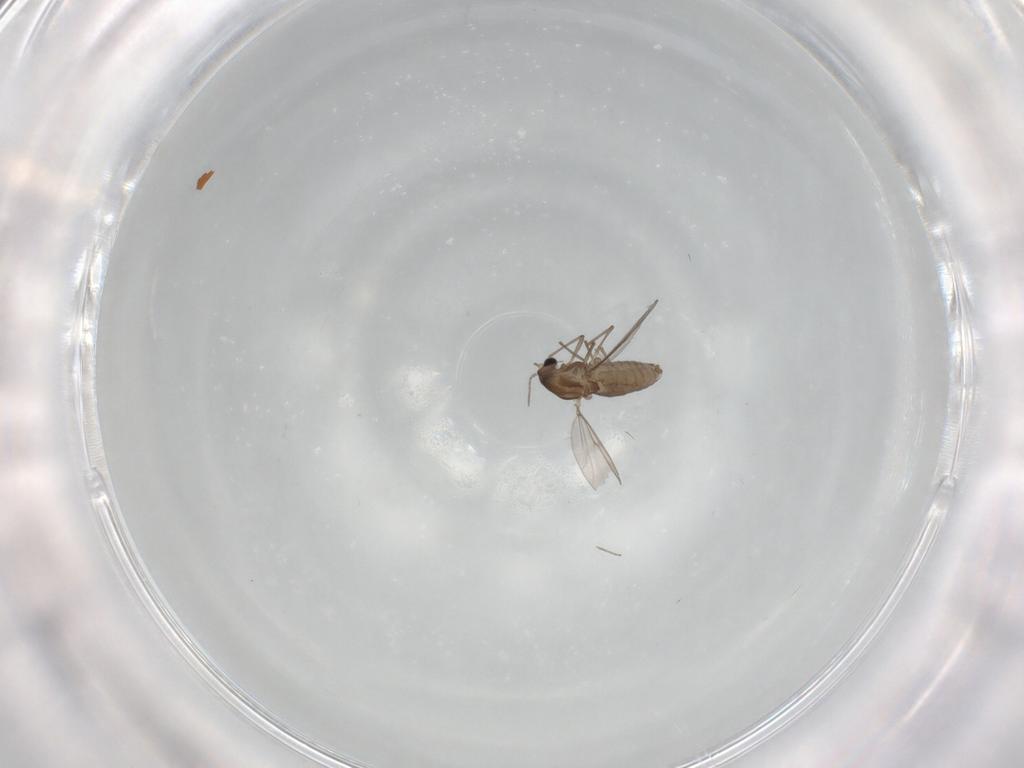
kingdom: Animalia
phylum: Arthropoda
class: Insecta
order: Diptera
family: Chironomidae
